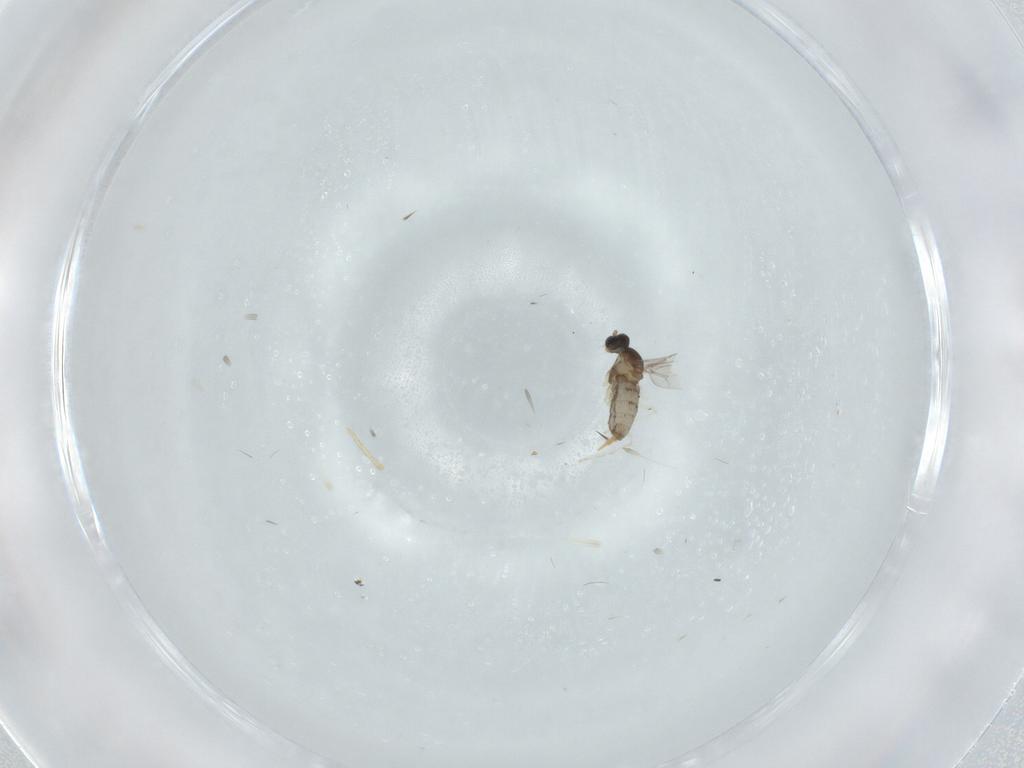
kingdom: Animalia
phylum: Arthropoda
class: Insecta
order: Diptera
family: Cecidomyiidae
